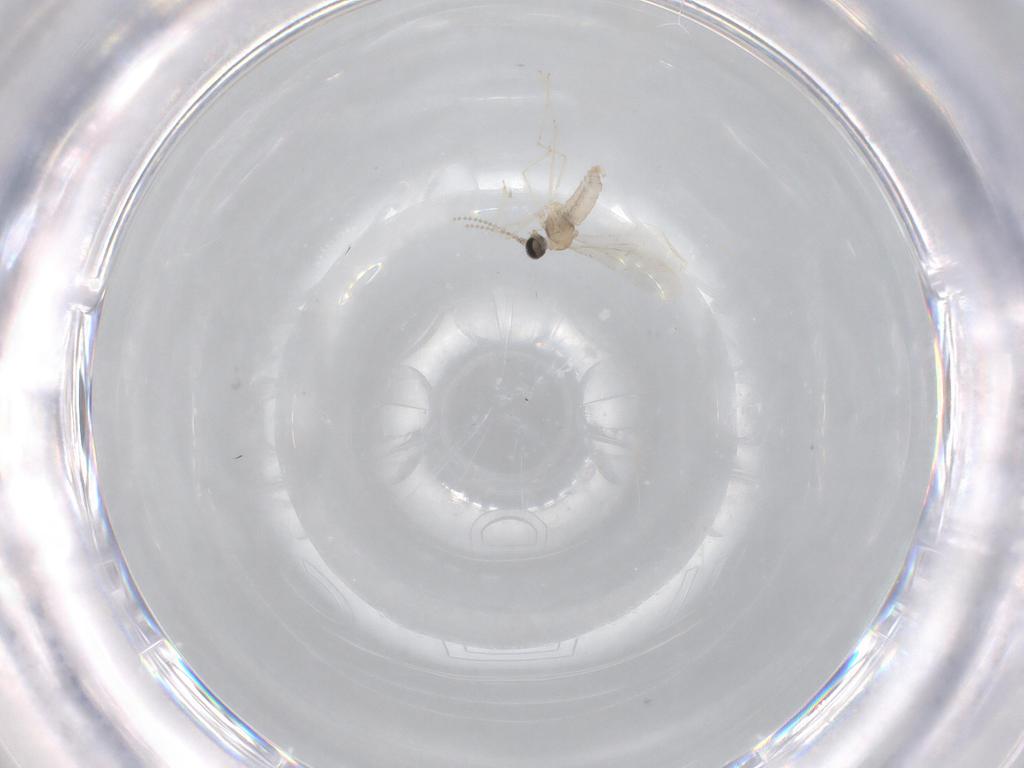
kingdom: Animalia
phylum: Arthropoda
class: Insecta
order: Diptera
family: Cecidomyiidae
